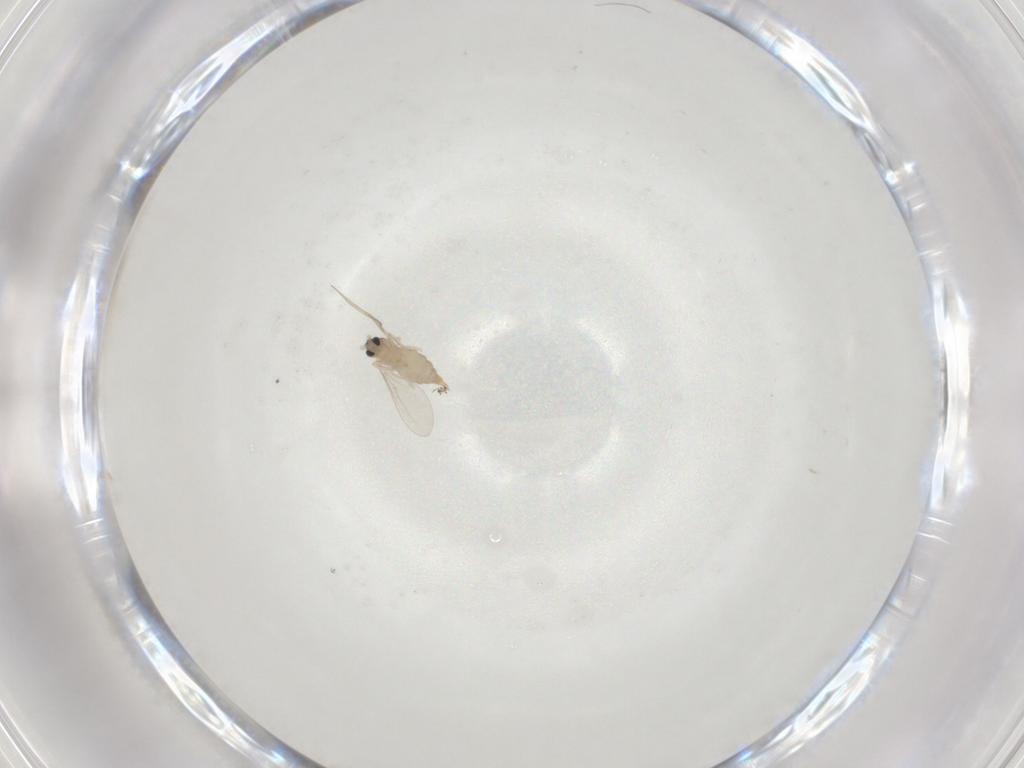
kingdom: Animalia
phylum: Arthropoda
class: Insecta
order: Diptera
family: Cecidomyiidae
